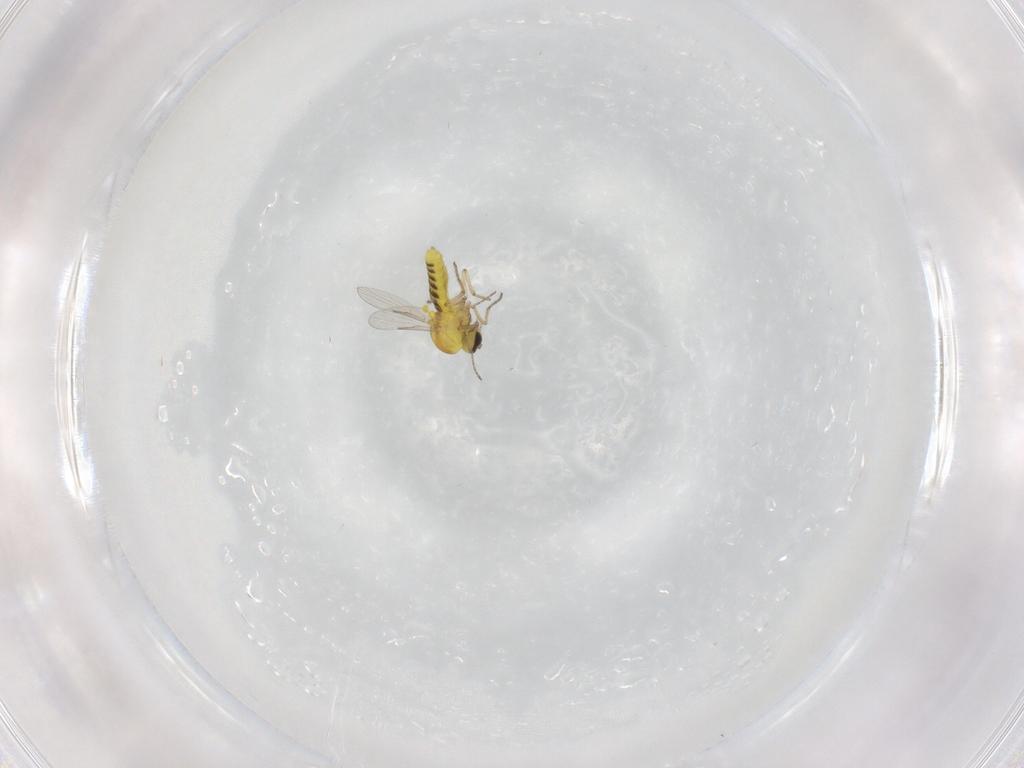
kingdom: Animalia
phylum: Arthropoda
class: Insecta
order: Diptera
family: Ceratopogonidae
